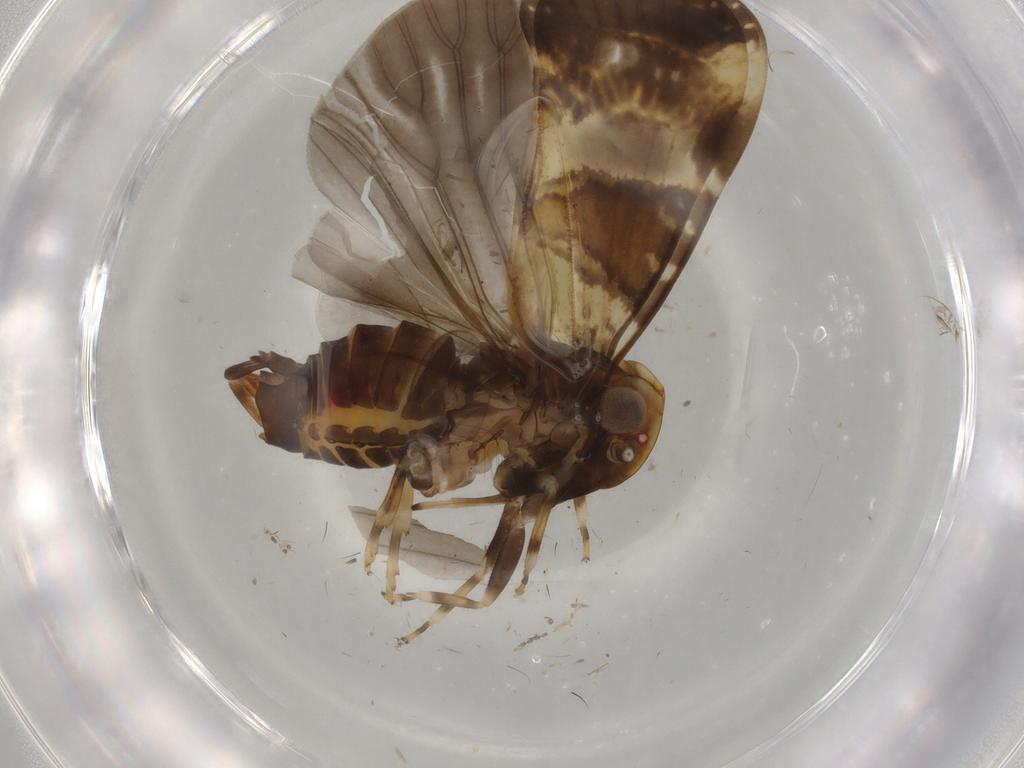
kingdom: Animalia
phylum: Arthropoda
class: Insecta
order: Hemiptera
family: Cixiidae
